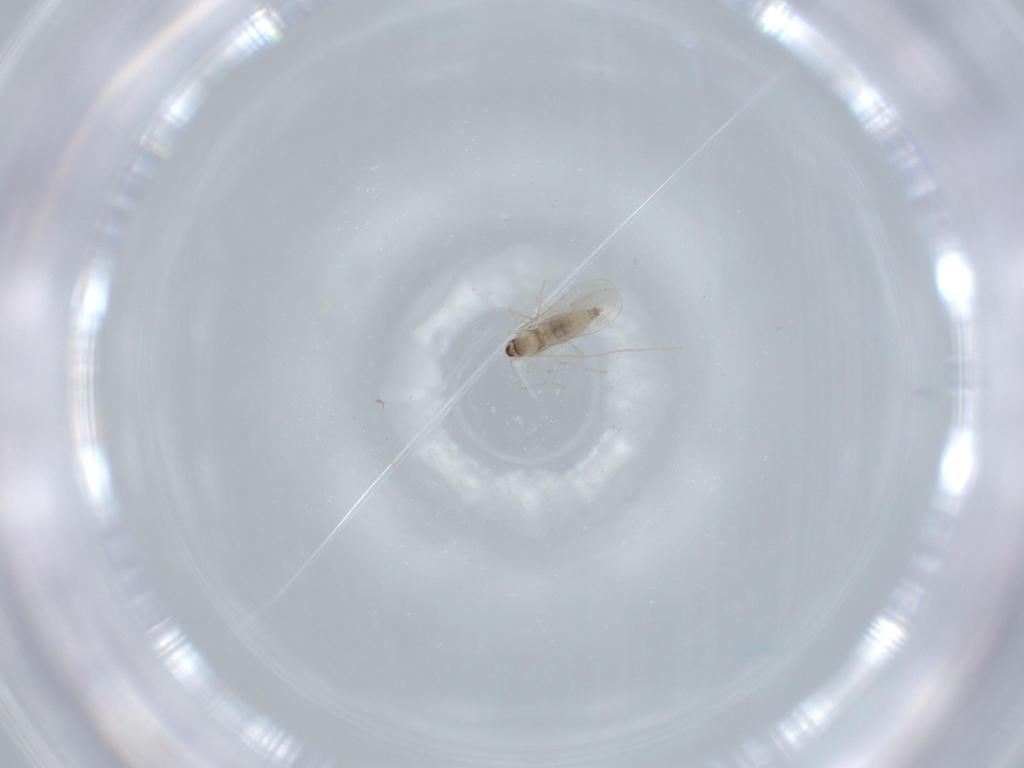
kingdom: Animalia
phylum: Arthropoda
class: Insecta
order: Diptera
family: Cecidomyiidae
